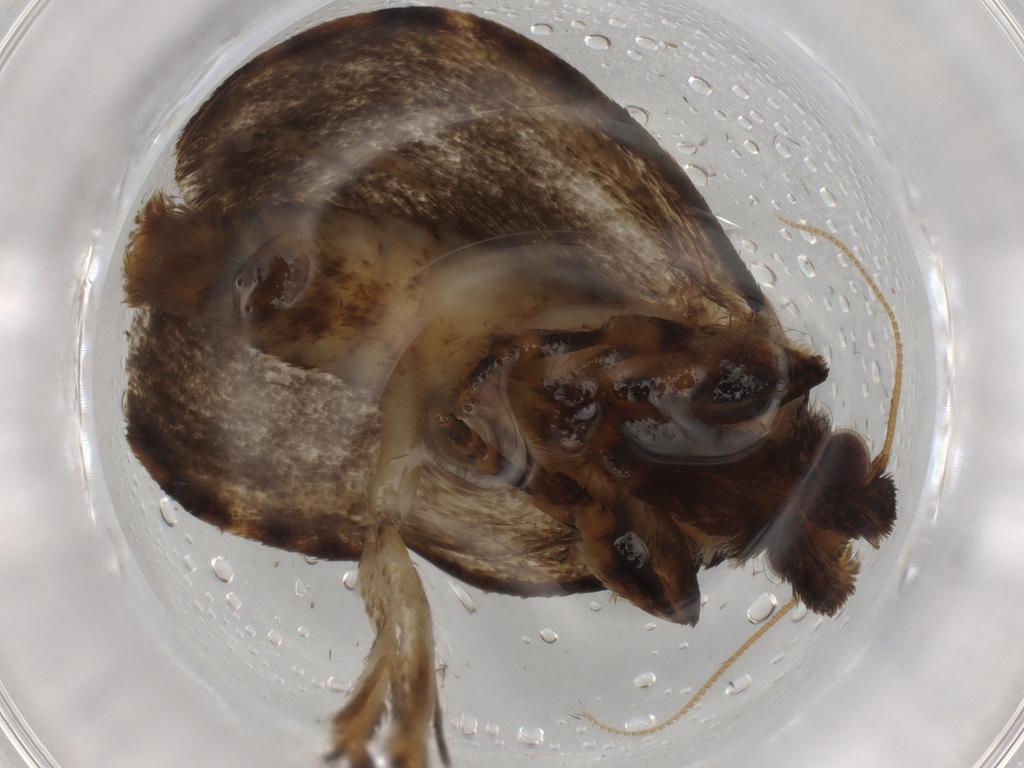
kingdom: Animalia
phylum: Arthropoda
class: Insecta
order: Lepidoptera
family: Tineidae
